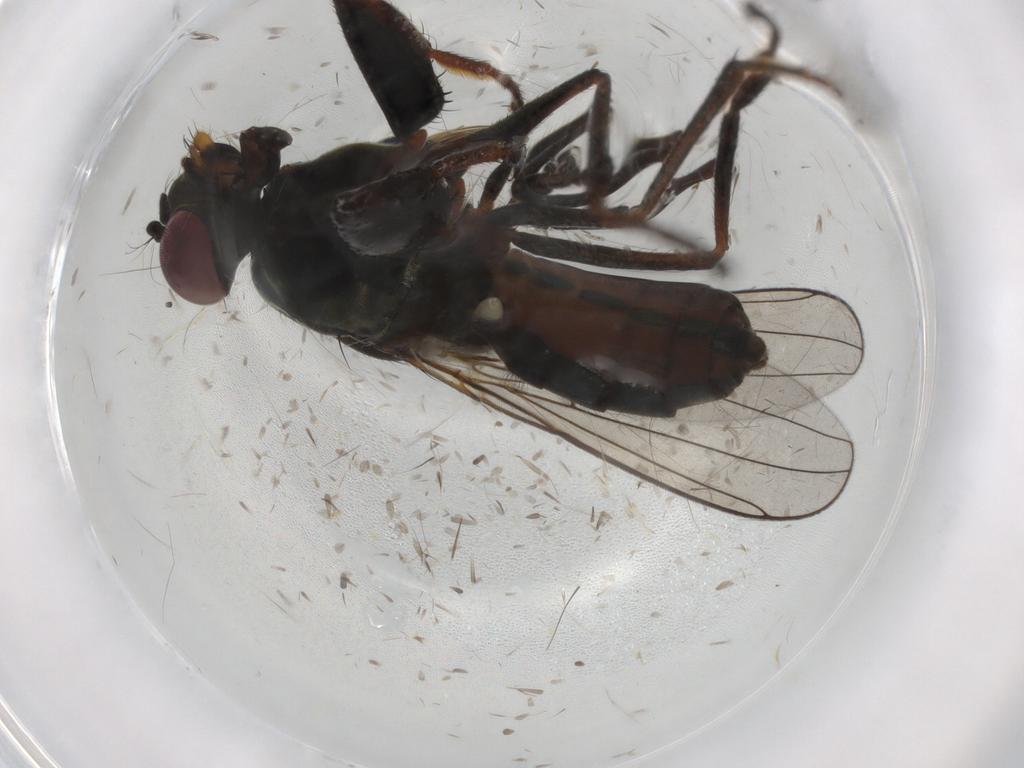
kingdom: Animalia
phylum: Arthropoda
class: Insecta
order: Diptera
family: Ephydridae
